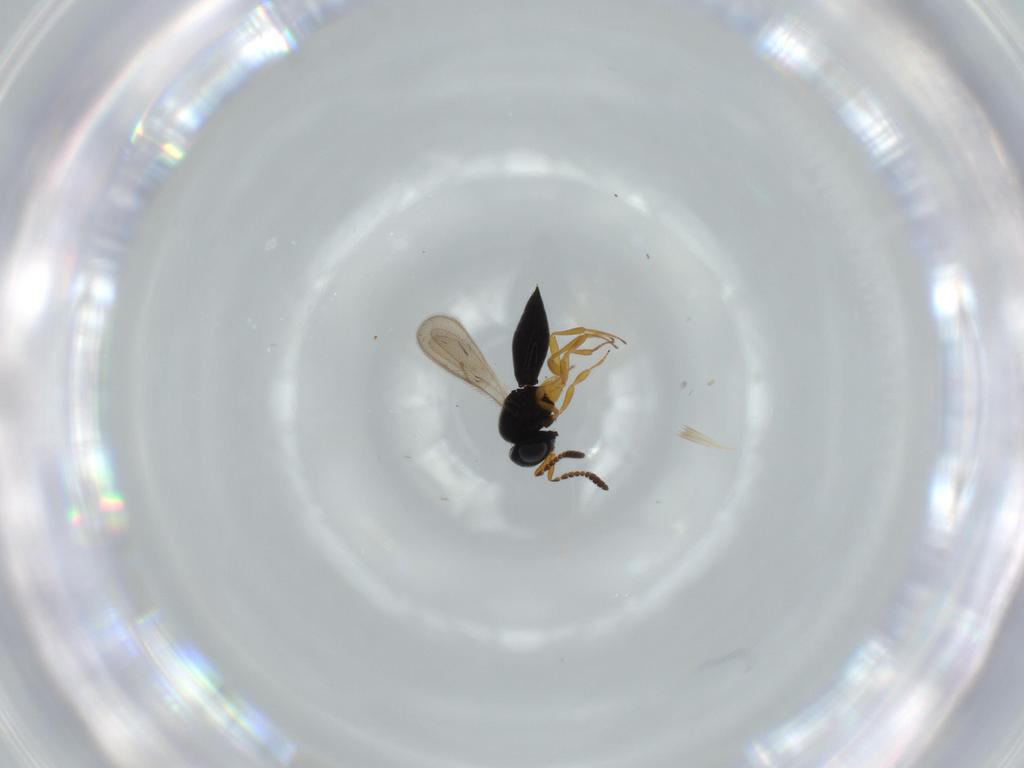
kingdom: Animalia
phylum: Arthropoda
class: Insecta
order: Hymenoptera
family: Scelionidae
